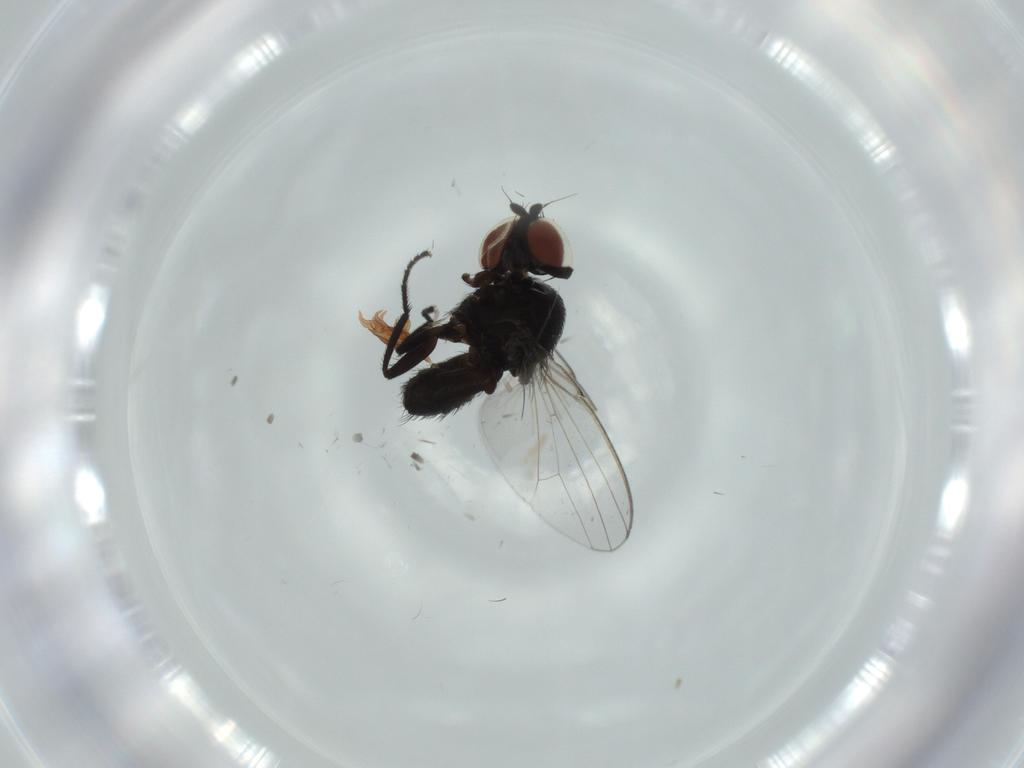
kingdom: Animalia
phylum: Arthropoda
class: Insecta
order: Diptera
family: Milichiidae
